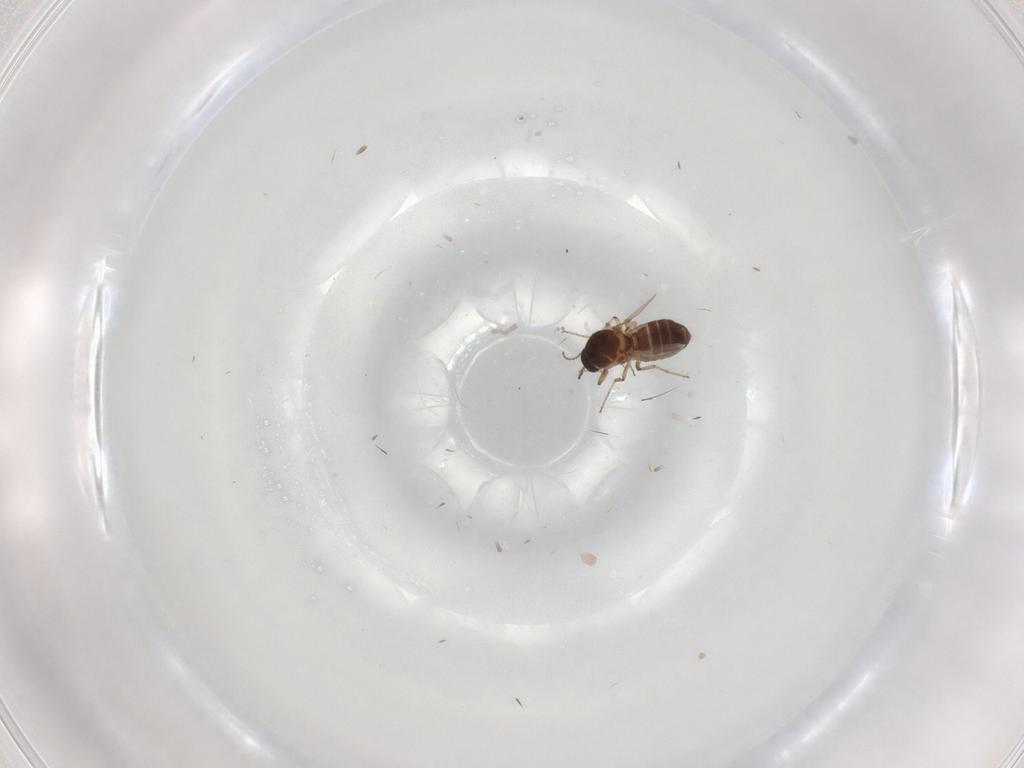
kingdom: Animalia
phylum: Arthropoda
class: Insecta
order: Diptera
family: Ceratopogonidae
